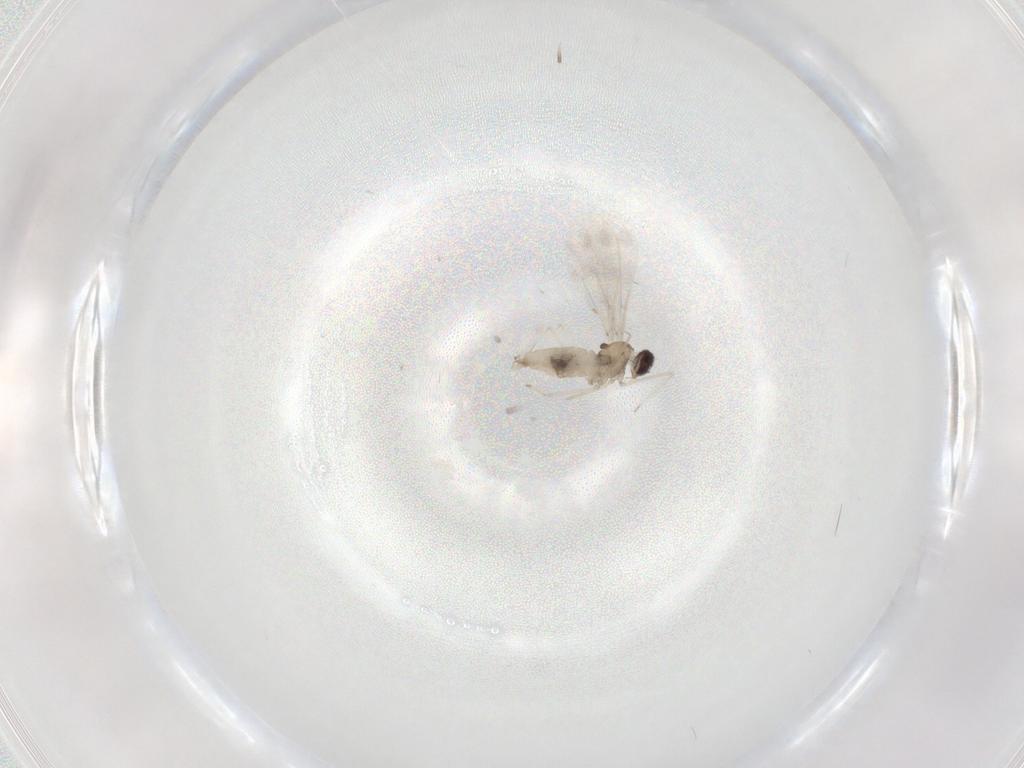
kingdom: Animalia
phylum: Arthropoda
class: Insecta
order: Diptera
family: Cecidomyiidae
